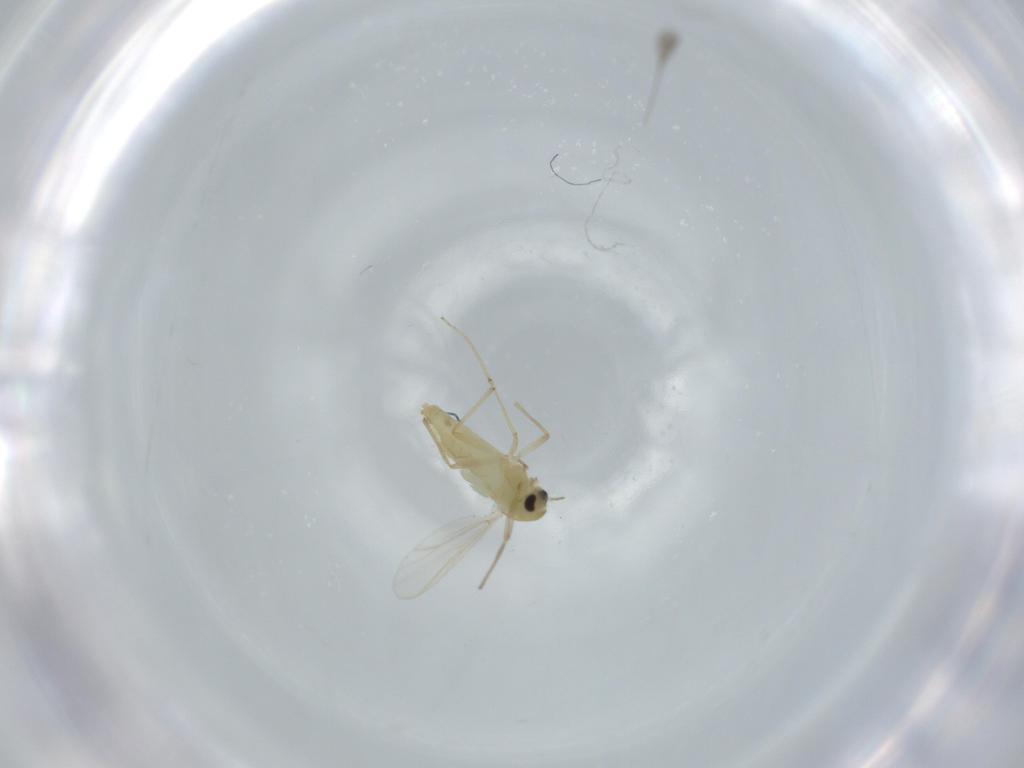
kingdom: Animalia
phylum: Arthropoda
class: Insecta
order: Diptera
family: Chironomidae
